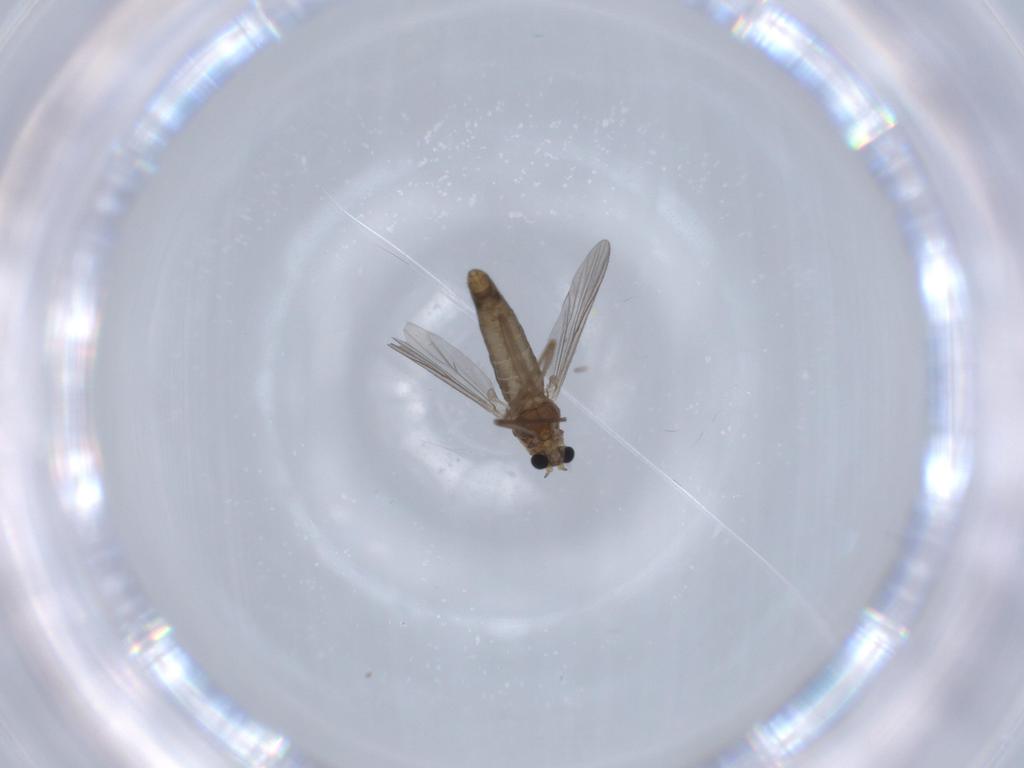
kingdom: Animalia
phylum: Arthropoda
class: Insecta
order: Diptera
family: Chironomidae
